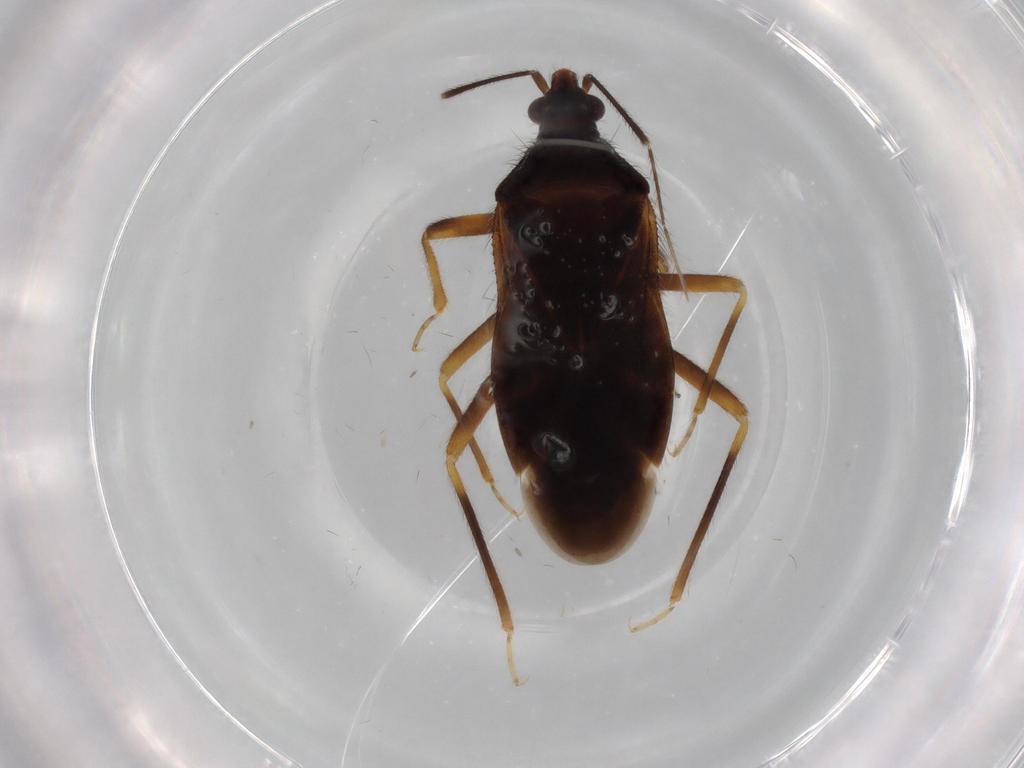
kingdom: Animalia
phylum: Arthropoda
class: Insecta
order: Hemiptera
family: Anthocoridae
